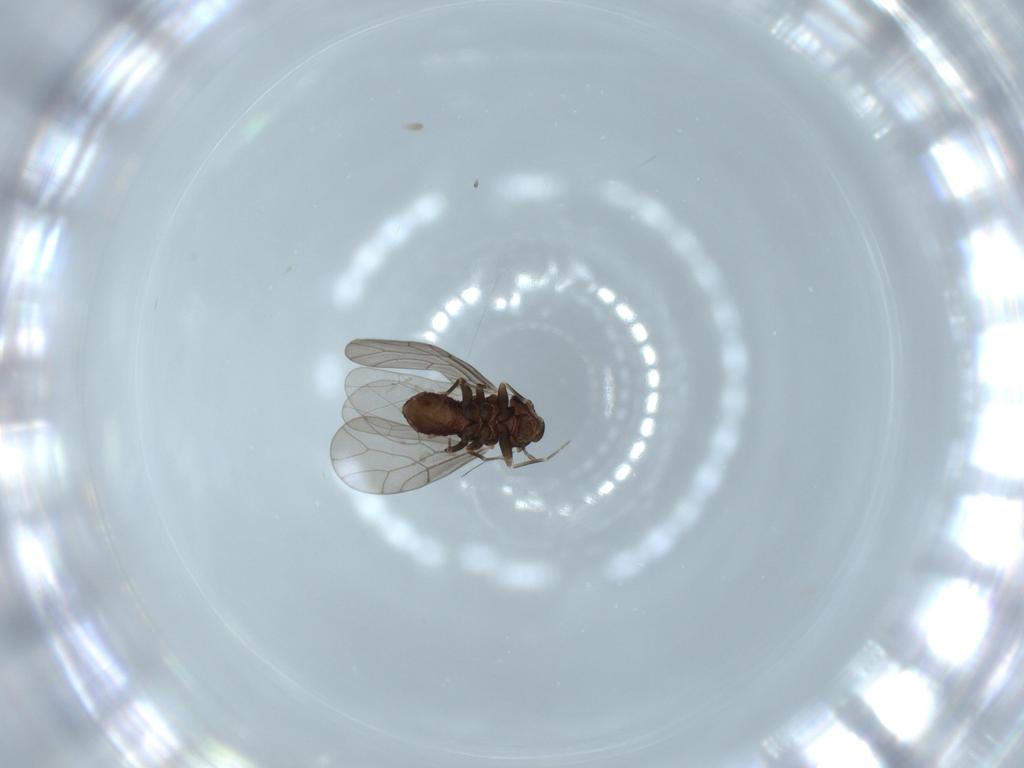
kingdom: Animalia
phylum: Arthropoda
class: Insecta
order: Psocodea
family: Lepidopsocidae
